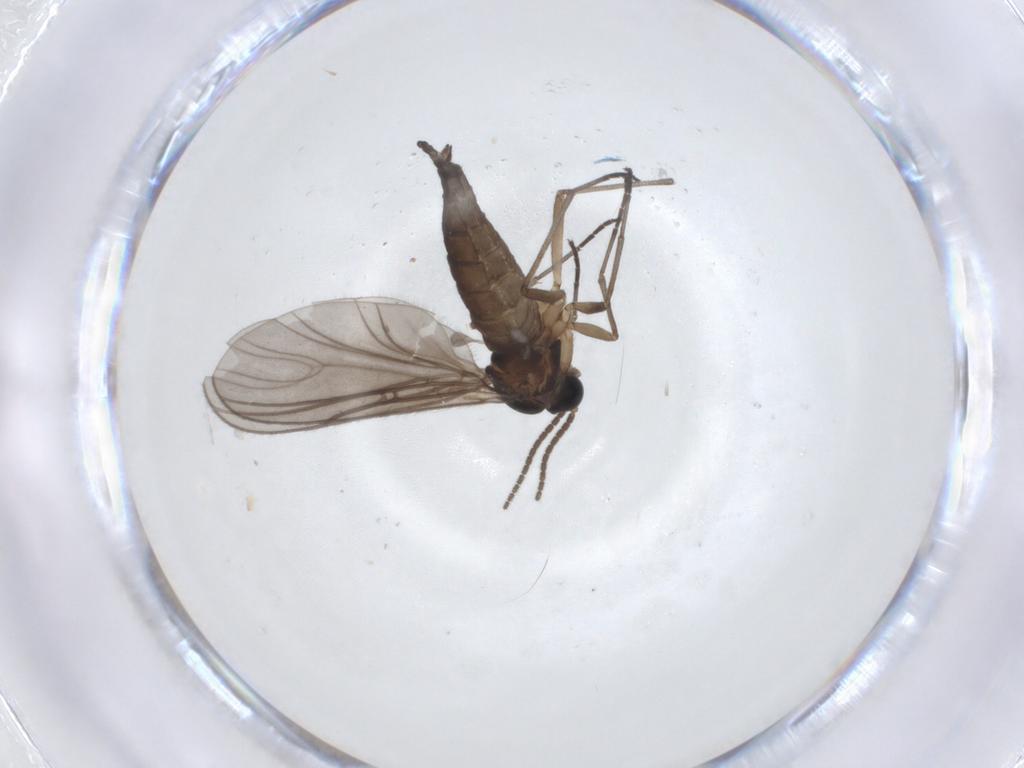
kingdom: Animalia
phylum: Arthropoda
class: Insecta
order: Diptera
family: Sciaridae
